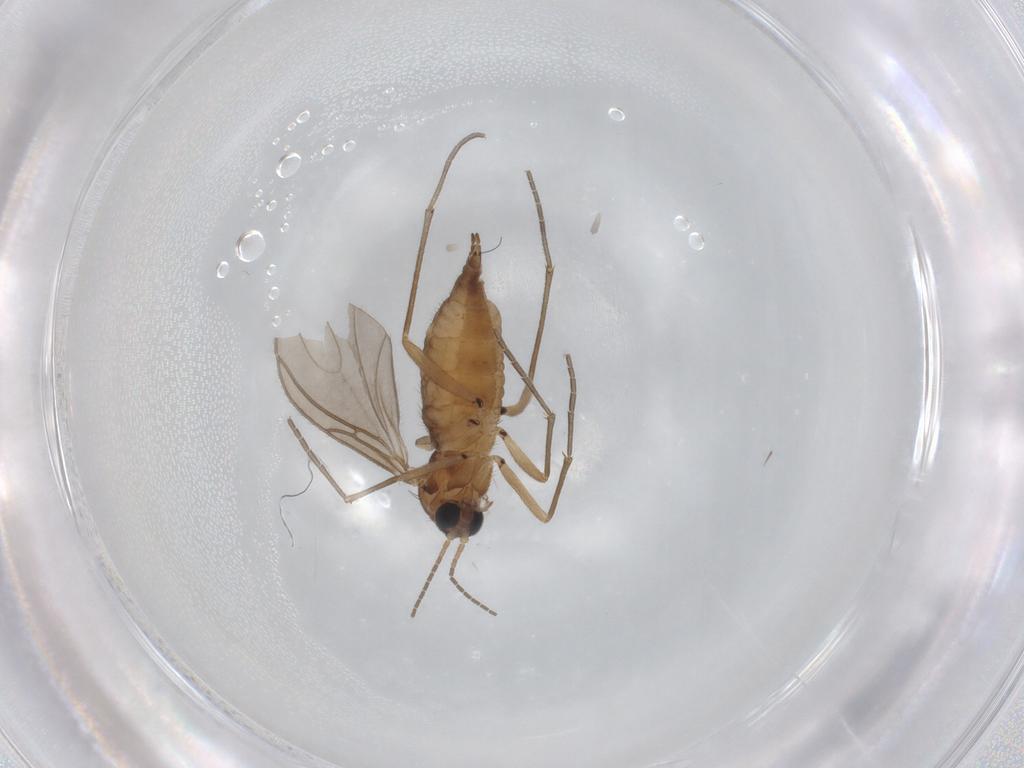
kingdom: Animalia
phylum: Arthropoda
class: Insecta
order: Diptera
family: Sciaridae
